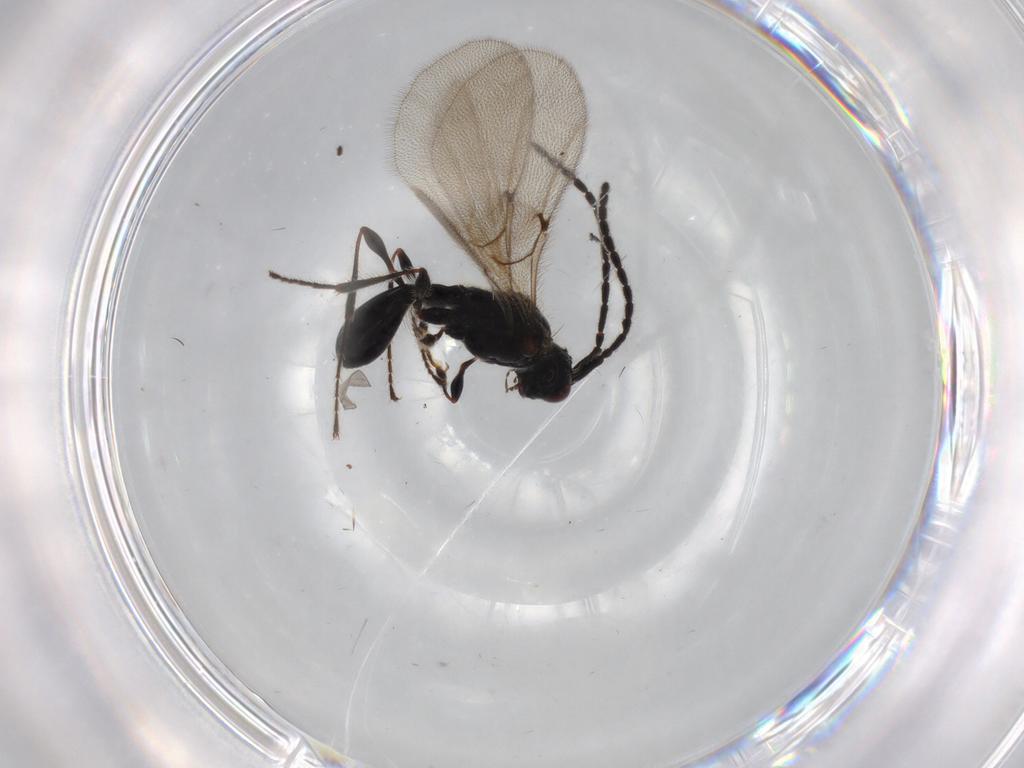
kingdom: Animalia
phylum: Arthropoda
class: Insecta
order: Hymenoptera
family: Diapriidae
